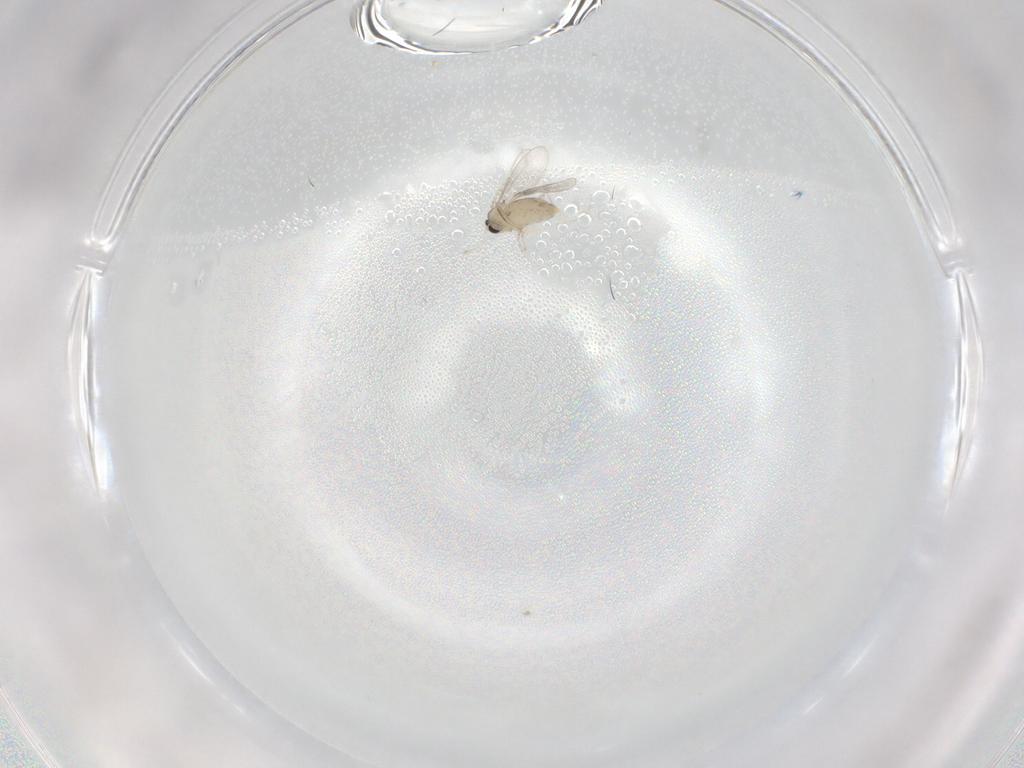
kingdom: Animalia
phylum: Arthropoda
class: Insecta
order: Diptera
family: Cecidomyiidae
